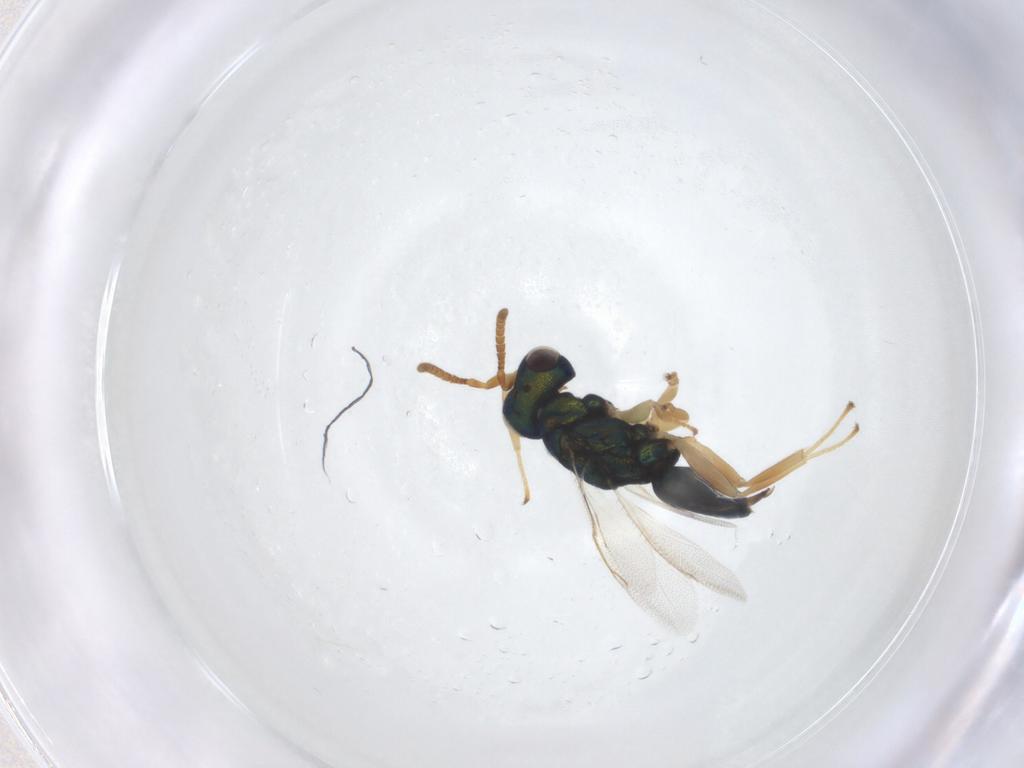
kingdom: Animalia
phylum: Arthropoda
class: Insecta
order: Hymenoptera
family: Pteromalidae
